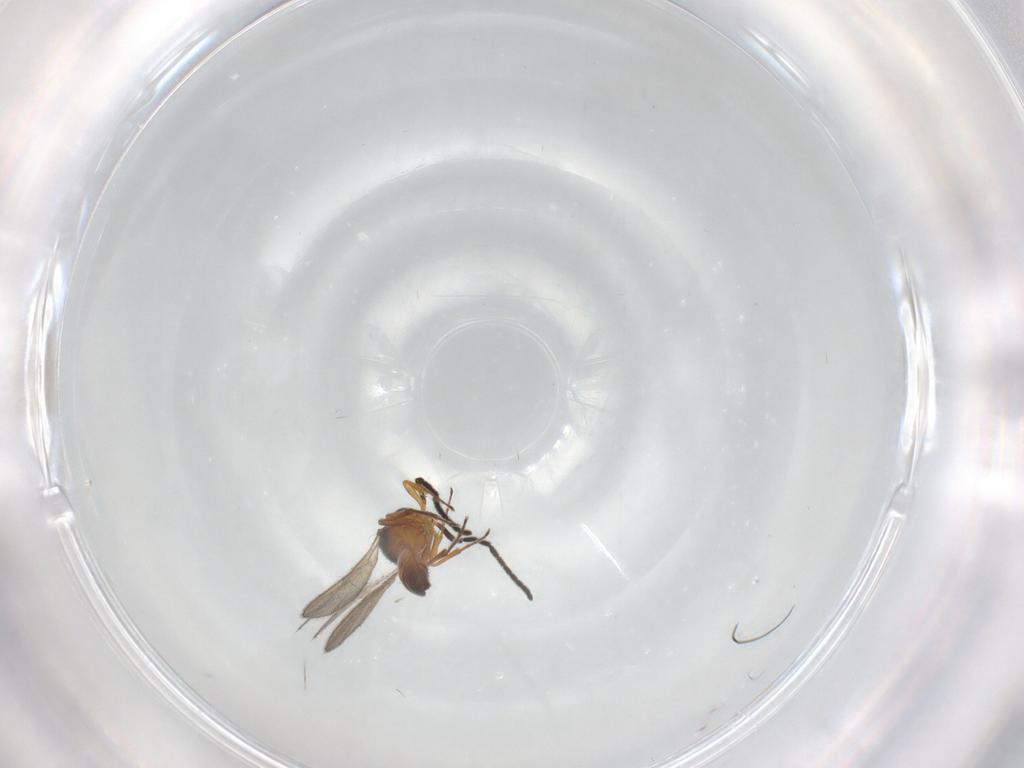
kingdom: Animalia
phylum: Arthropoda
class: Insecta
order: Hymenoptera
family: Scelionidae
